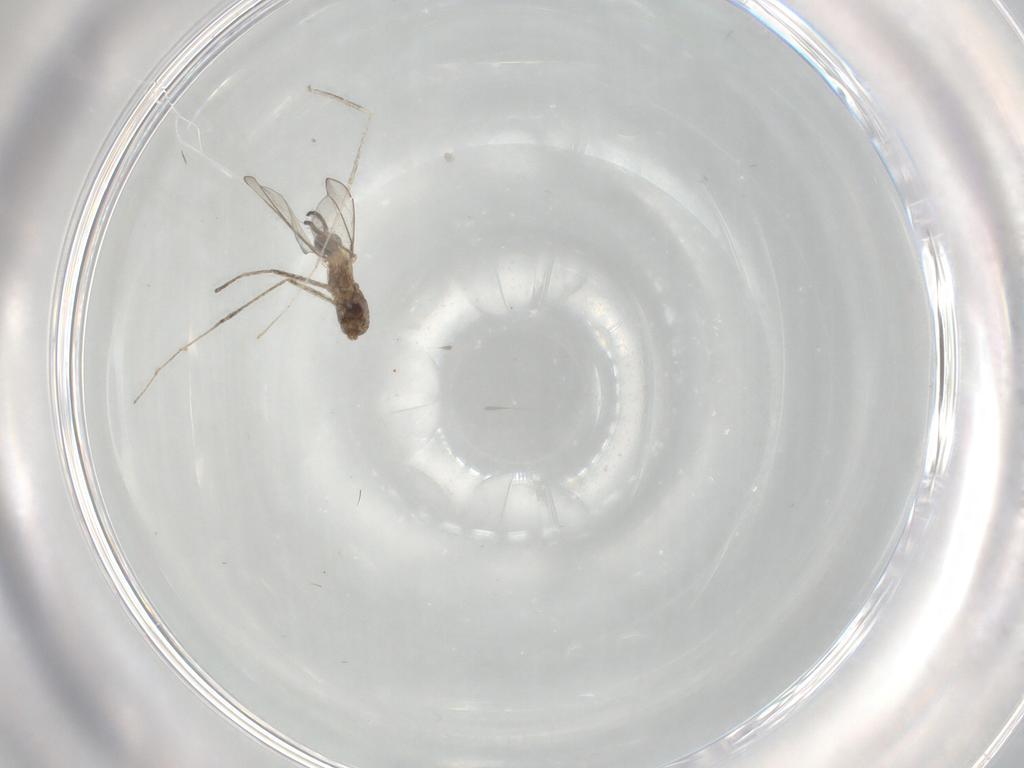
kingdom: Animalia
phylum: Arthropoda
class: Insecta
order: Diptera
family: Cecidomyiidae
